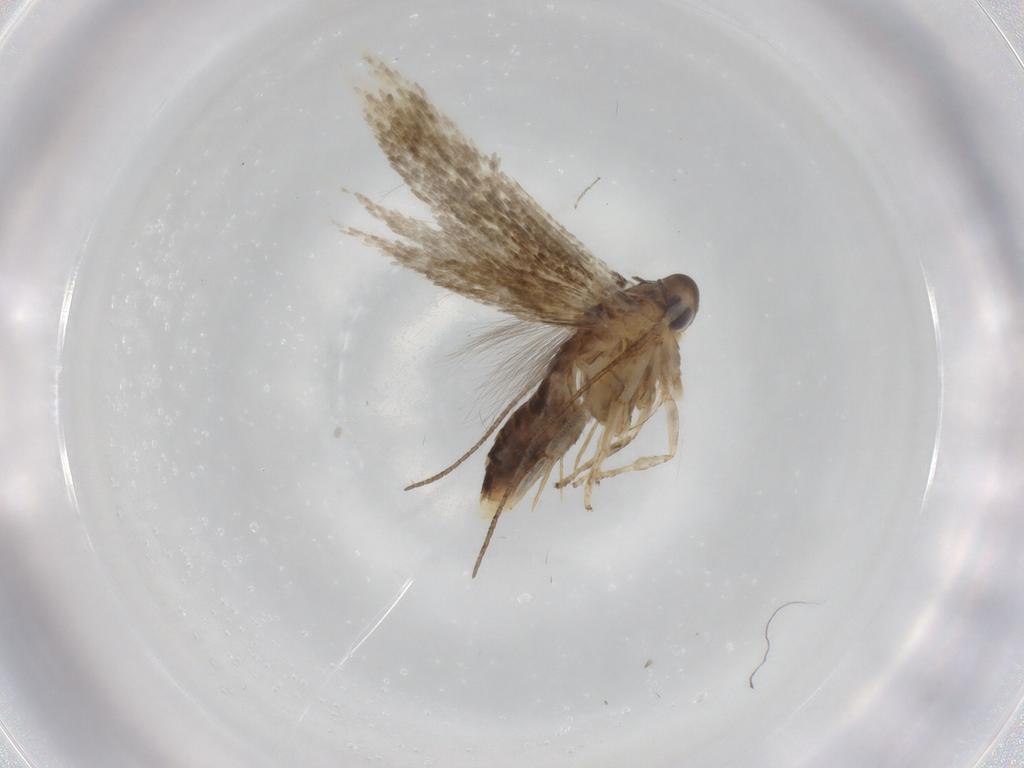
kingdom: Animalia
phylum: Arthropoda
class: Insecta
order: Lepidoptera
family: Oecophoridae
